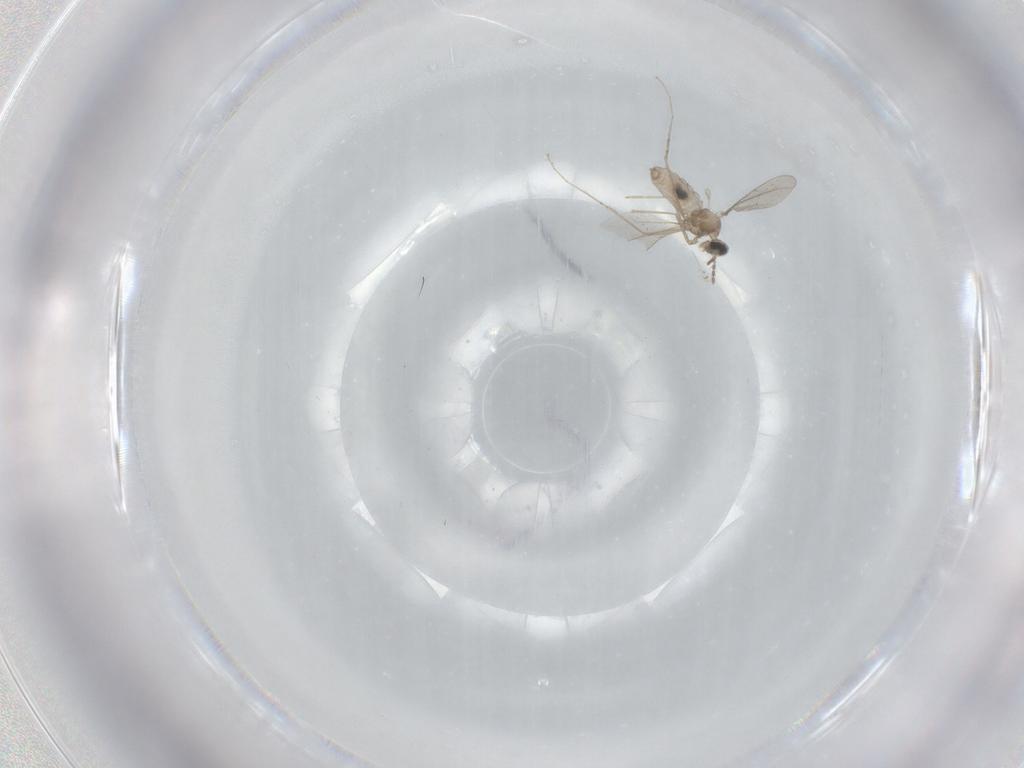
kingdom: Animalia
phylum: Arthropoda
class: Insecta
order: Diptera
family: Cecidomyiidae
